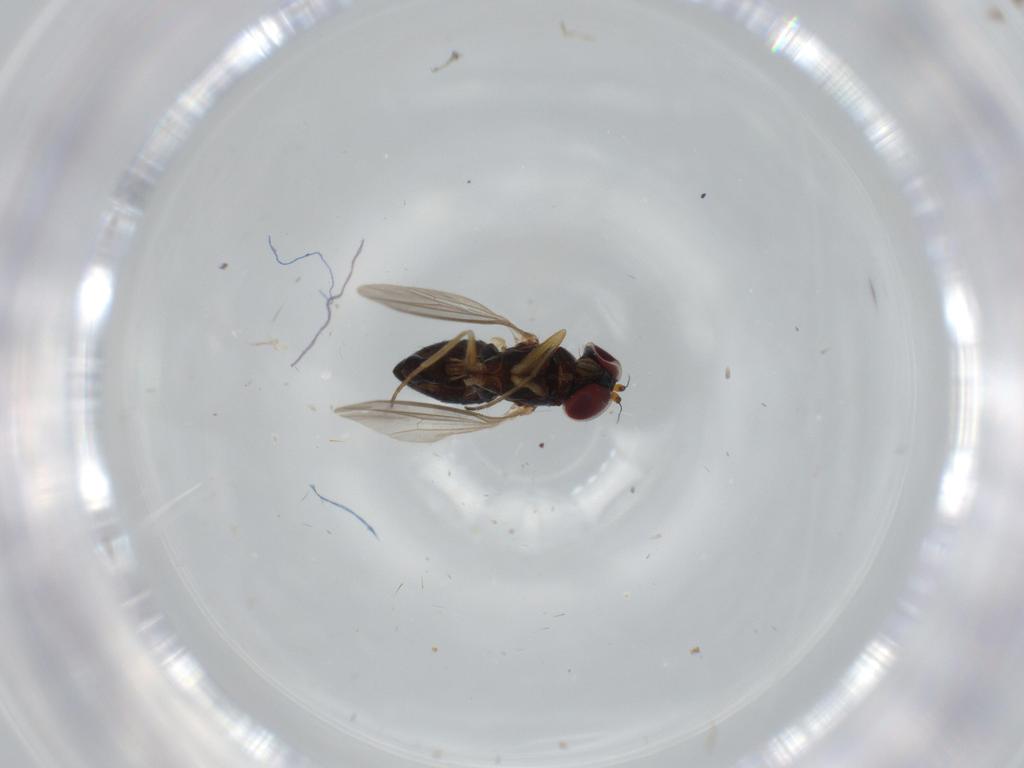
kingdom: Animalia
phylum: Arthropoda
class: Insecta
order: Diptera
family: Dolichopodidae
